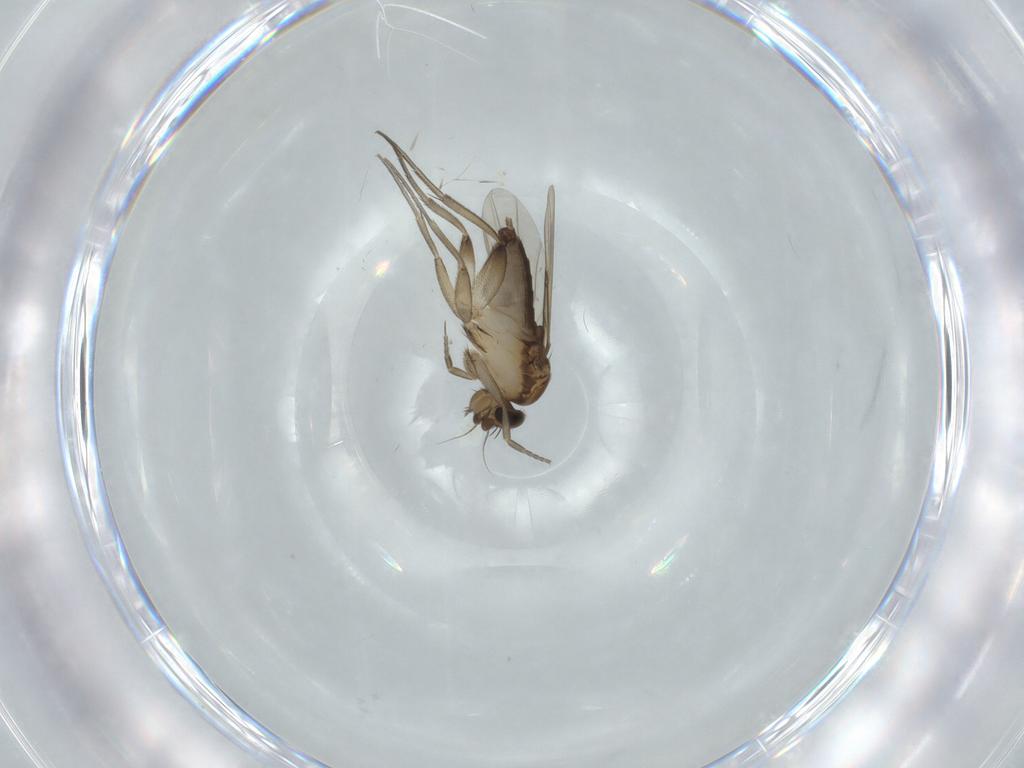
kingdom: Animalia
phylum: Arthropoda
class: Insecta
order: Diptera
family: Phoridae
